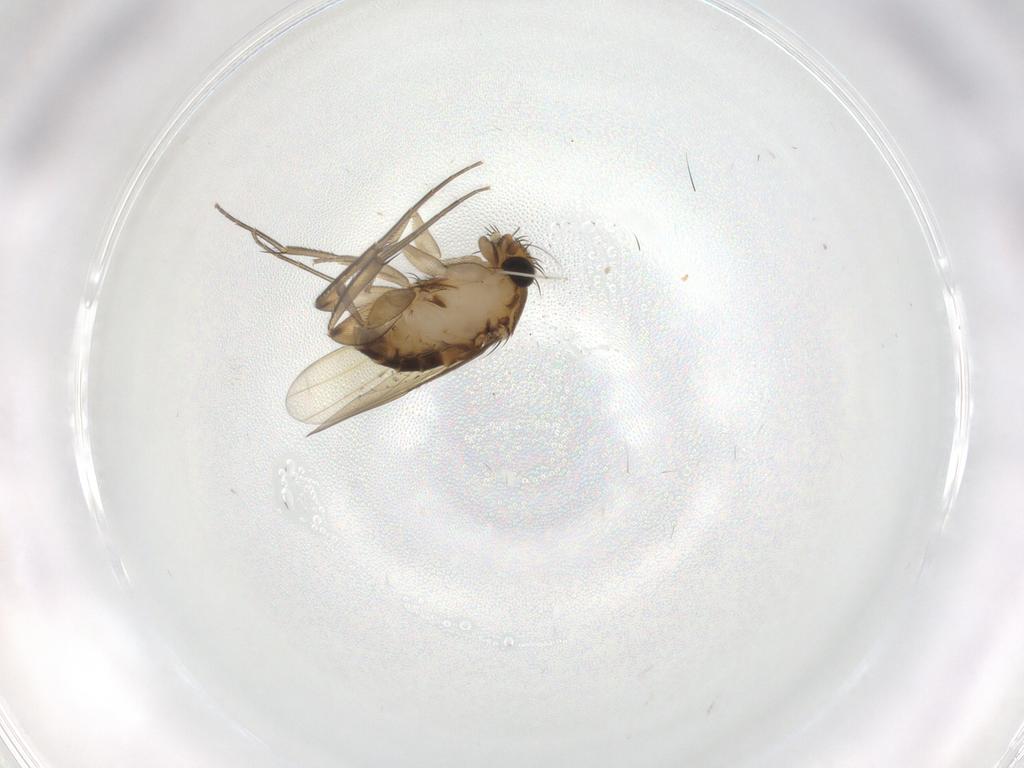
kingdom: Animalia
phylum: Arthropoda
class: Insecta
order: Diptera
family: Phoridae
